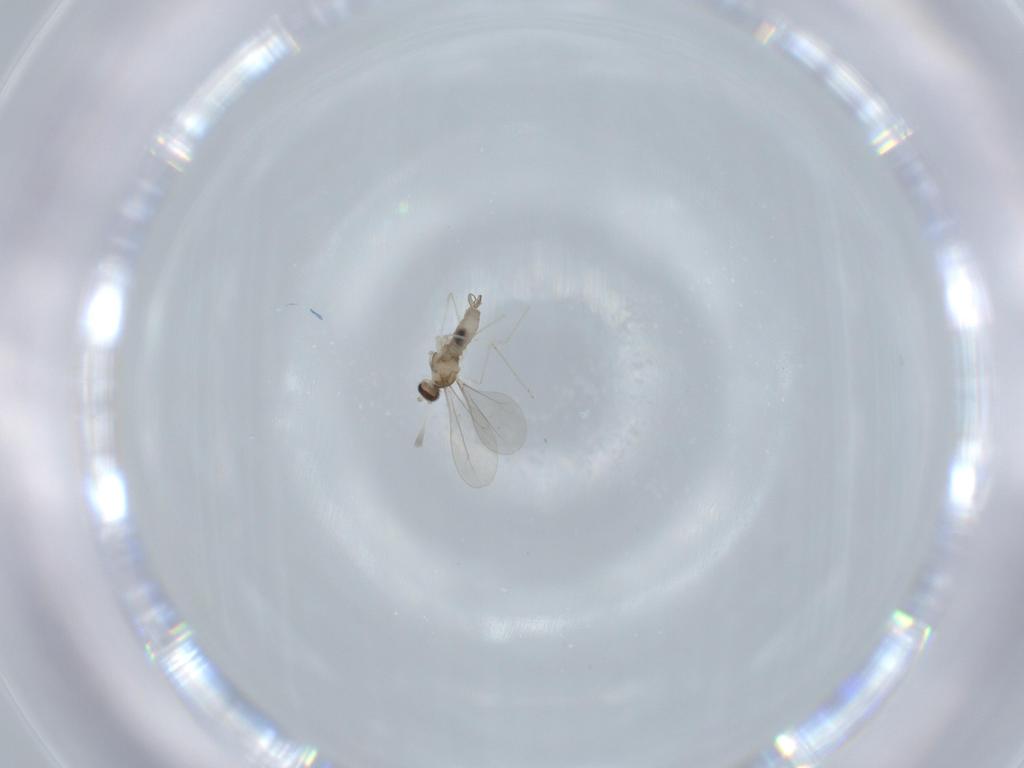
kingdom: Animalia
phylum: Arthropoda
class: Insecta
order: Diptera
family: Cecidomyiidae
